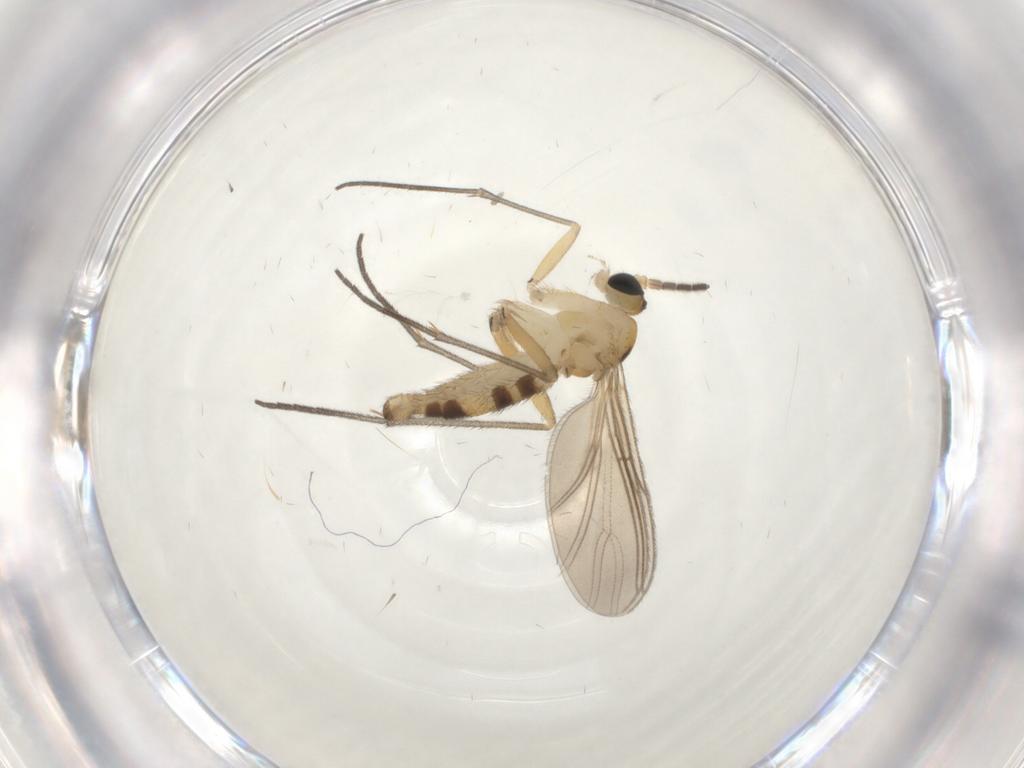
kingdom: Animalia
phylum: Arthropoda
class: Insecta
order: Diptera
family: Sciaridae
